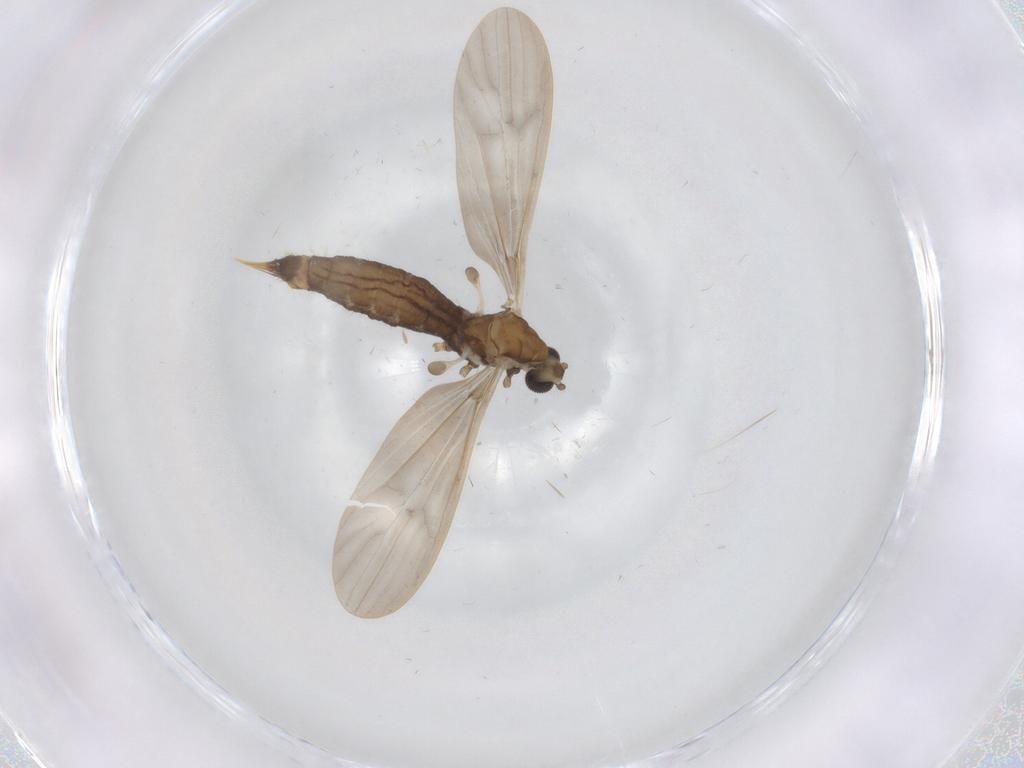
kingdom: Animalia
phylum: Arthropoda
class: Insecta
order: Diptera
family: Limoniidae
